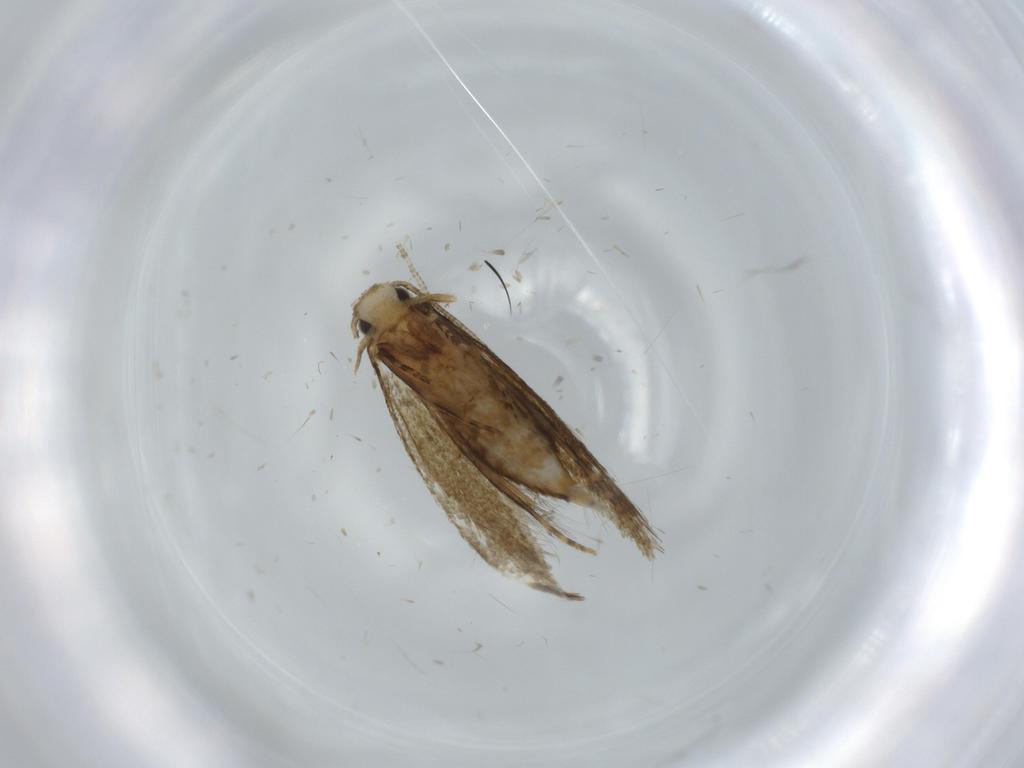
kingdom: Animalia
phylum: Arthropoda
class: Insecta
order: Lepidoptera
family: Tineidae
